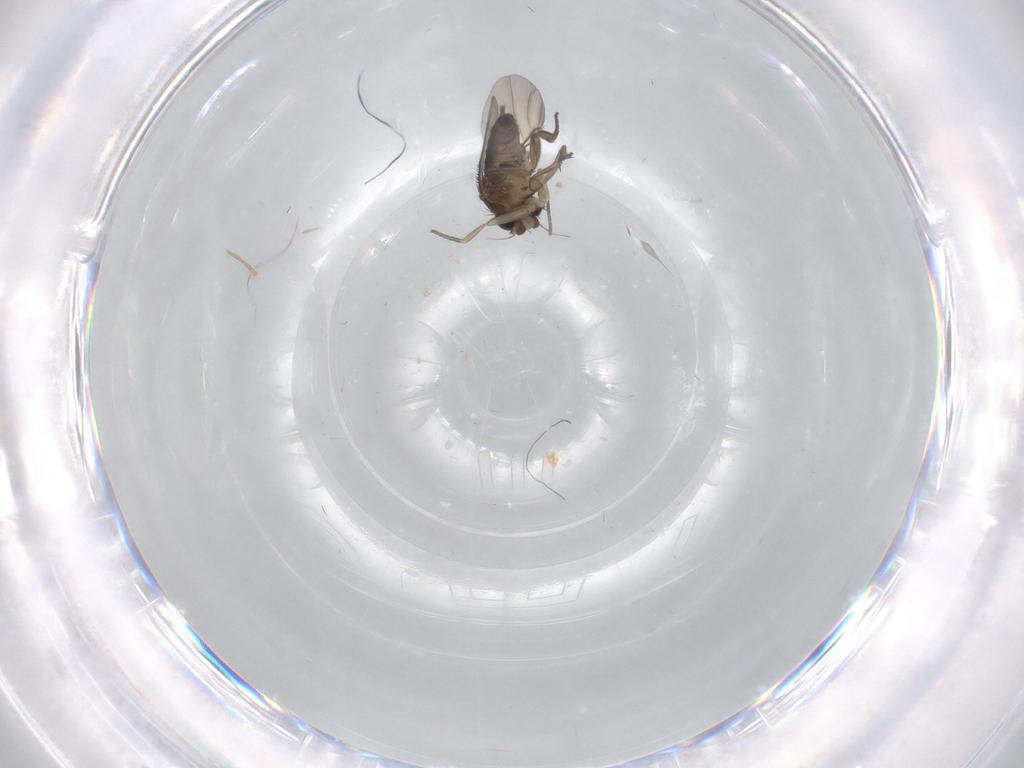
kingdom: Animalia
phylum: Arthropoda
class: Insecta
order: Diptera
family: Phoridae
